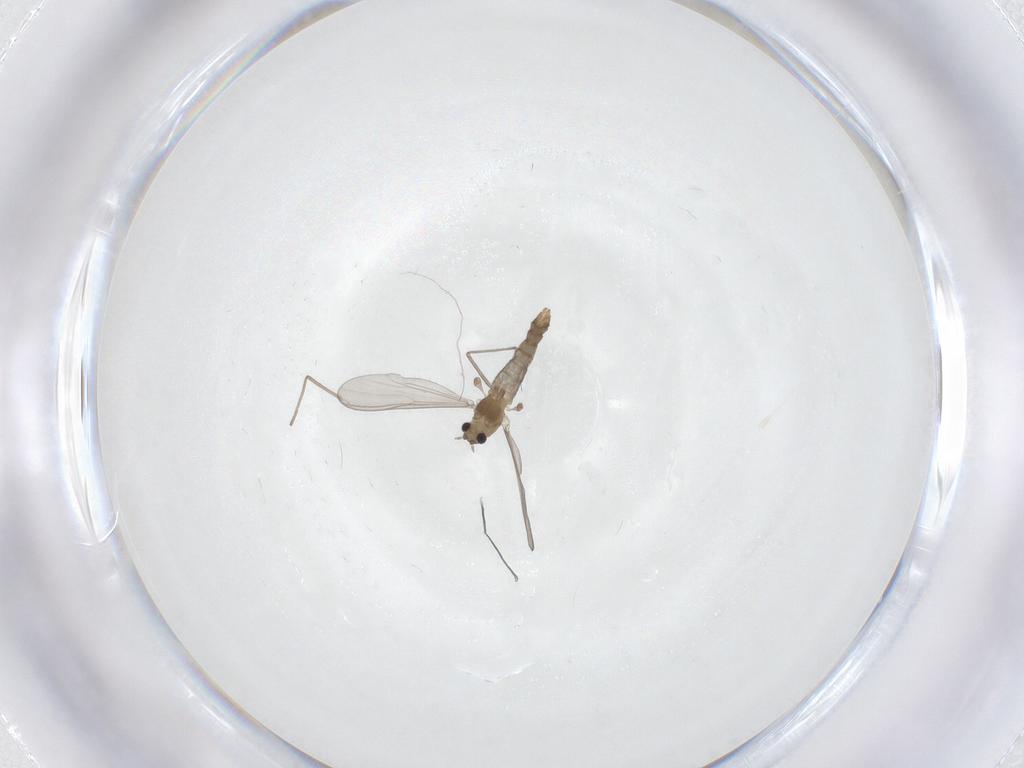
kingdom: Animalia
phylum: Arthropoda
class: Insecta
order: Diptera
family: Chironomidae
